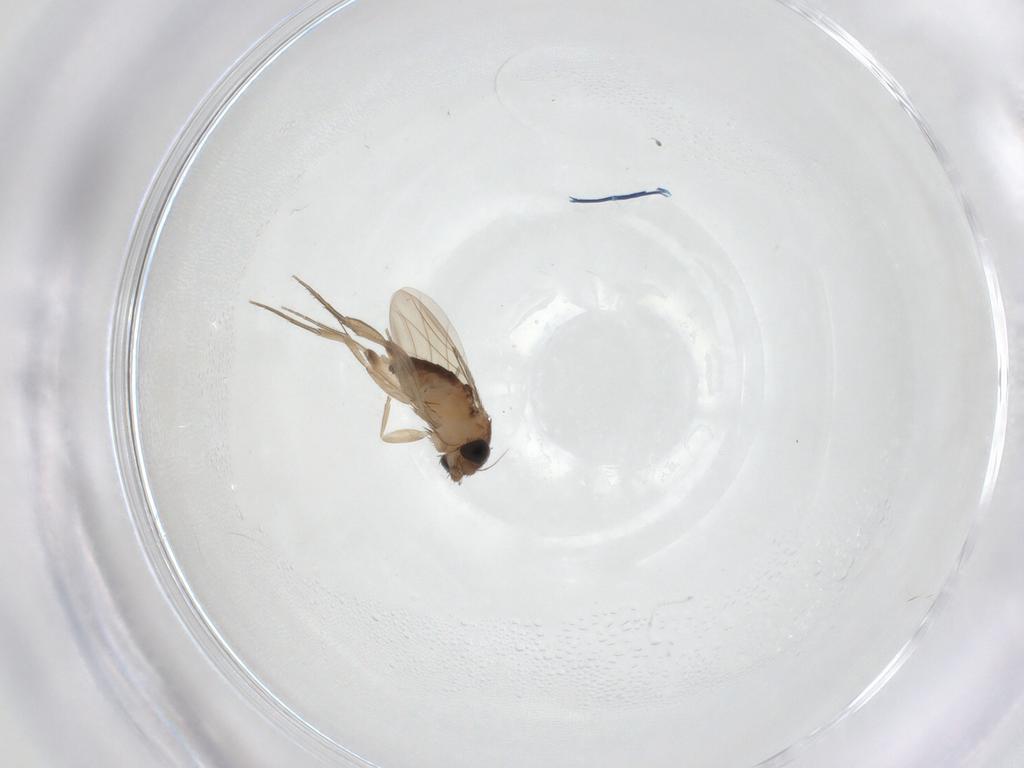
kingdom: Animalia
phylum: Arthropoda
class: Insecta
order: Diptera
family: Phoridae
